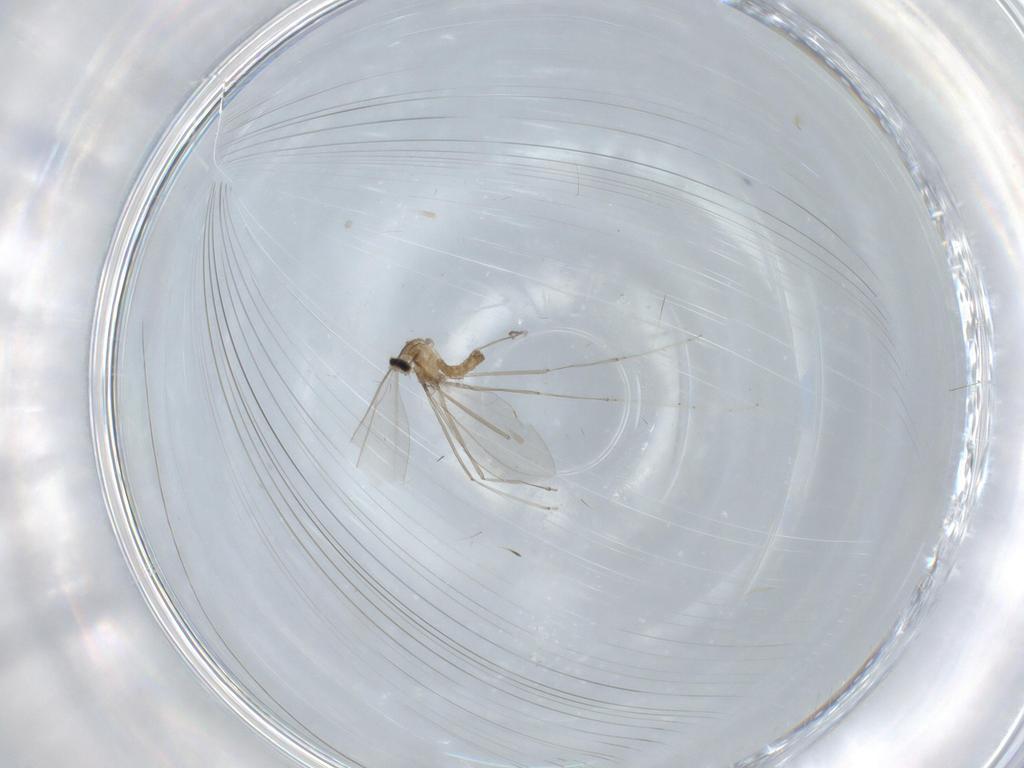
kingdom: Animalia
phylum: Arthropoda
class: Insecta
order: Diptera
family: Cecidomyiidae
